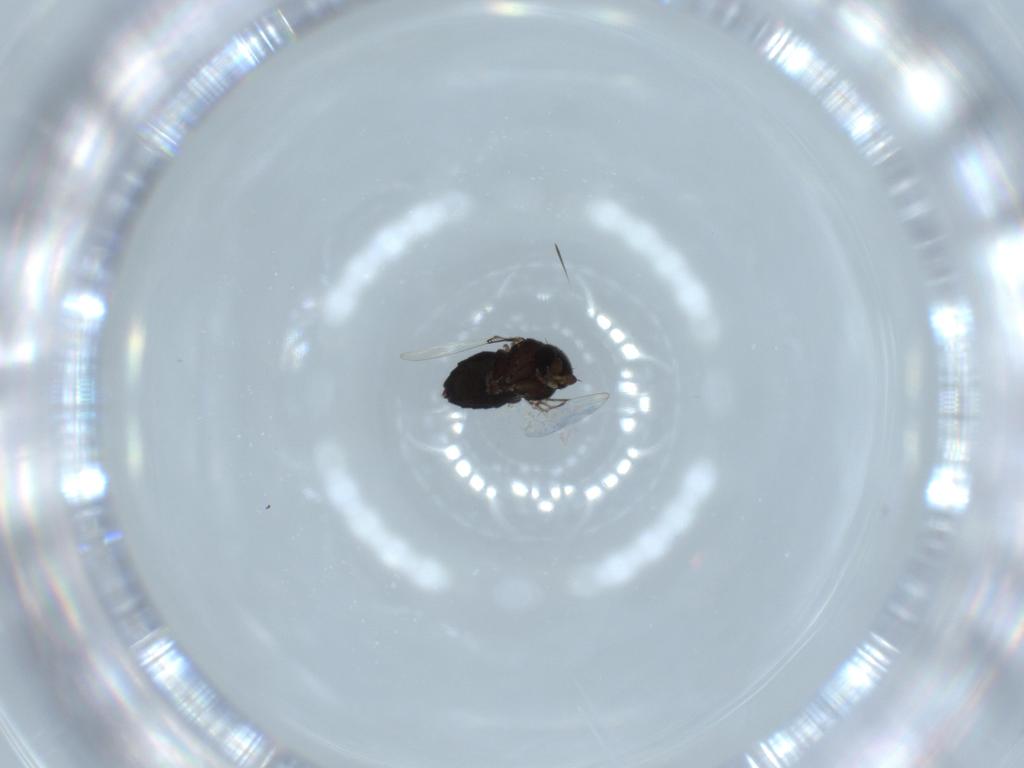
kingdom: Animalia
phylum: Arthropoda
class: Insecta
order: Diptera
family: Phoridae
